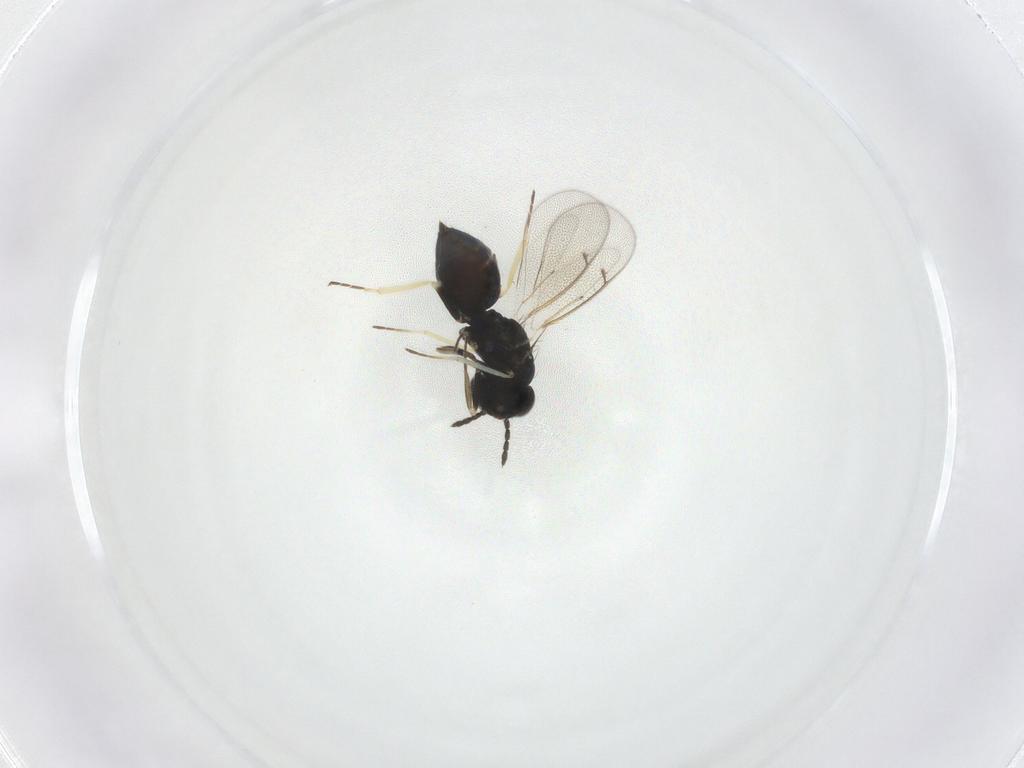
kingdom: Animalia
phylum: Arthropoda
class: Insecta
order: Hymenoptera
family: Eulophidae
